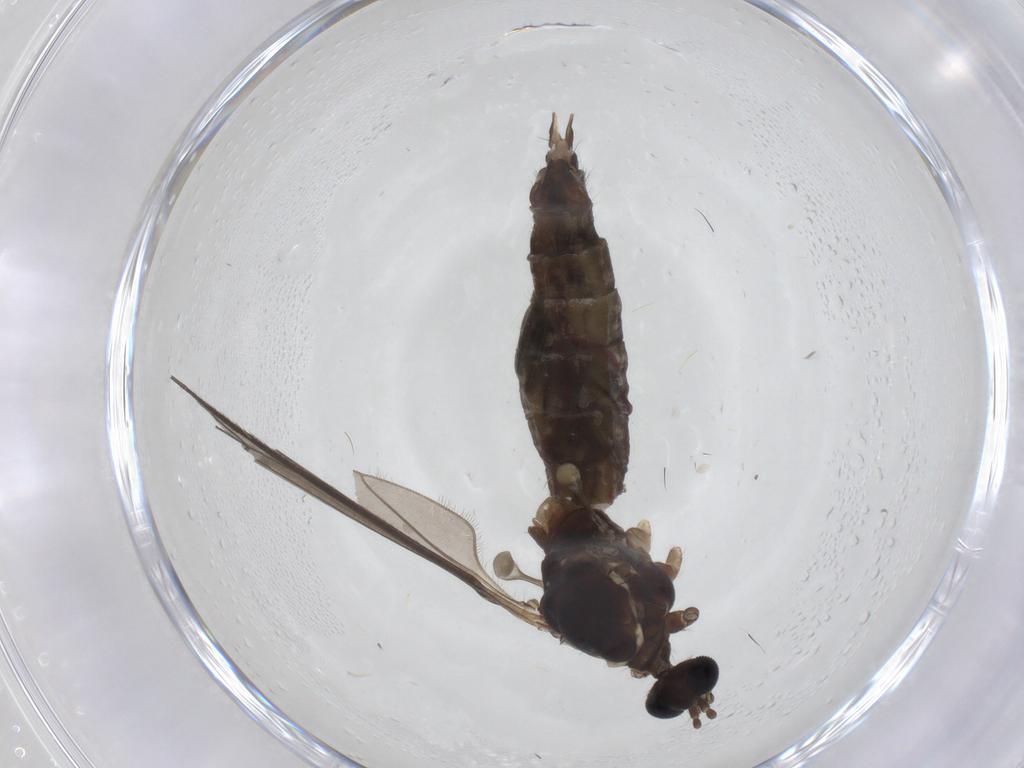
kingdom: Animalia
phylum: Arthropoda
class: Insecta
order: Diptera
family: Limoniidae
